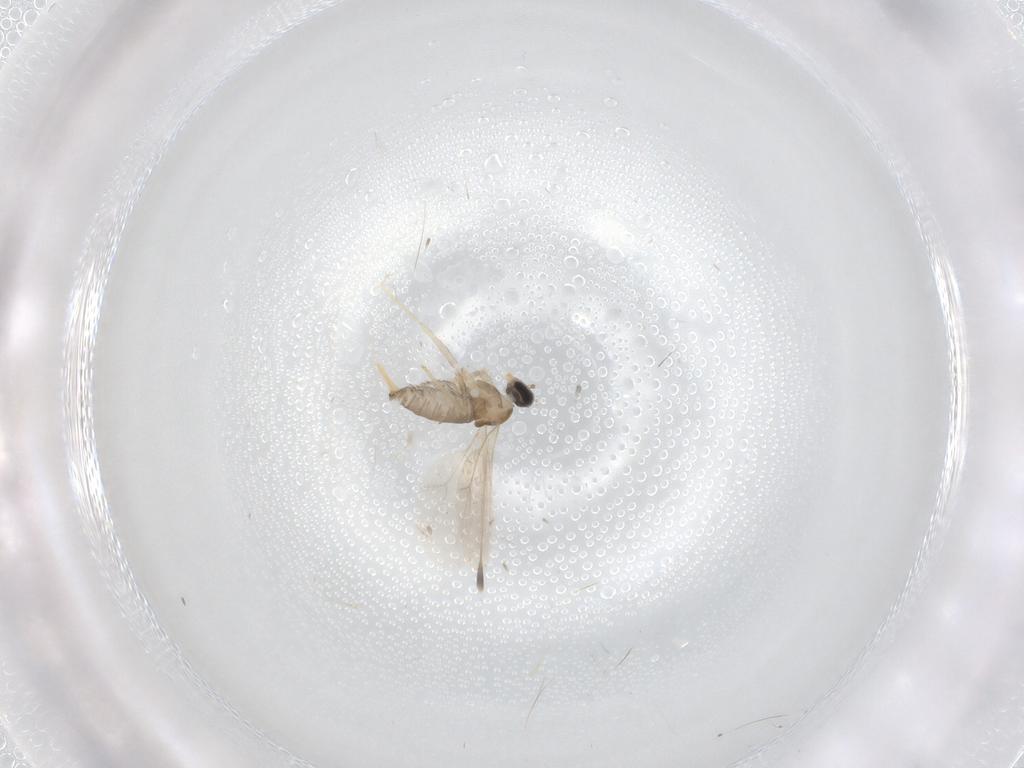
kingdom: Animalia
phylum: Arthropoda
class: Insecta
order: Diptera
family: Cecidomyiidae
